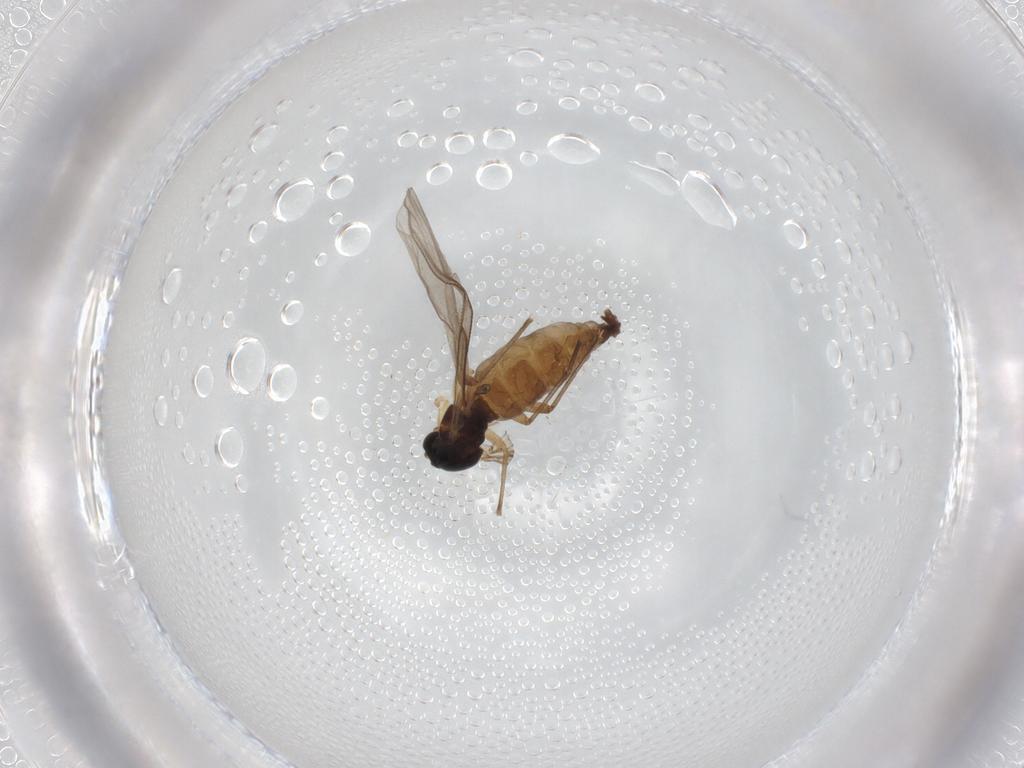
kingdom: Animalia
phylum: Arthropoda
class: Insecta
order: Diptera
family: Sciaridae
